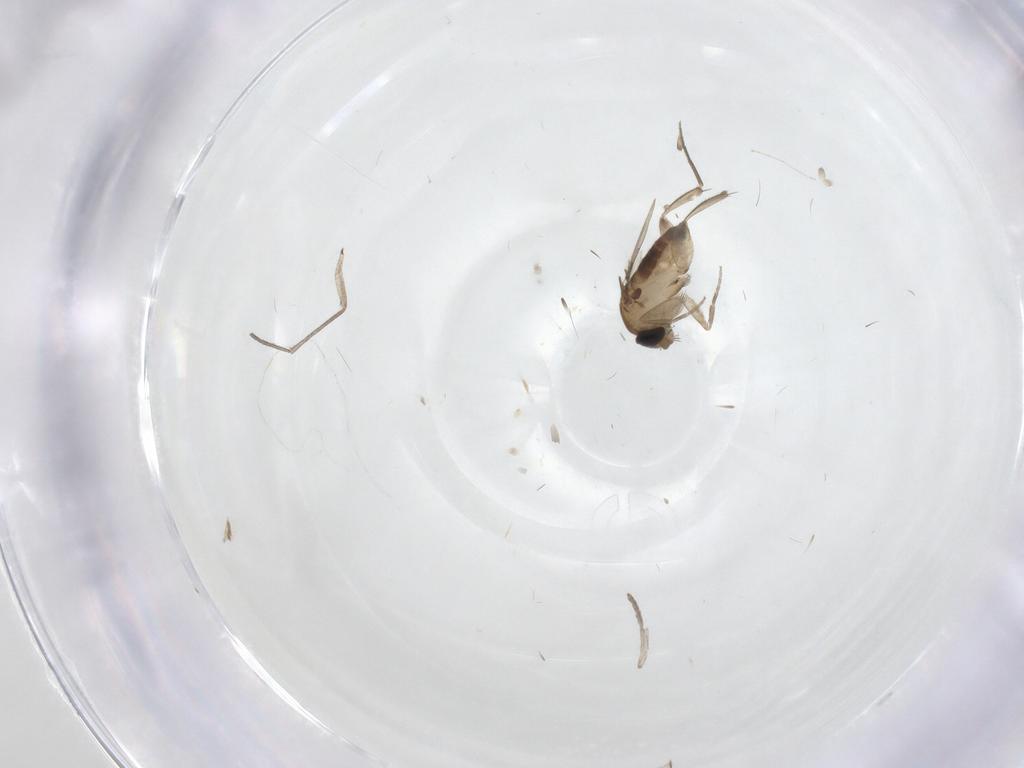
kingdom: Animalia
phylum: Arthropoda
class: Insecta
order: Diptera
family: Phoridae
